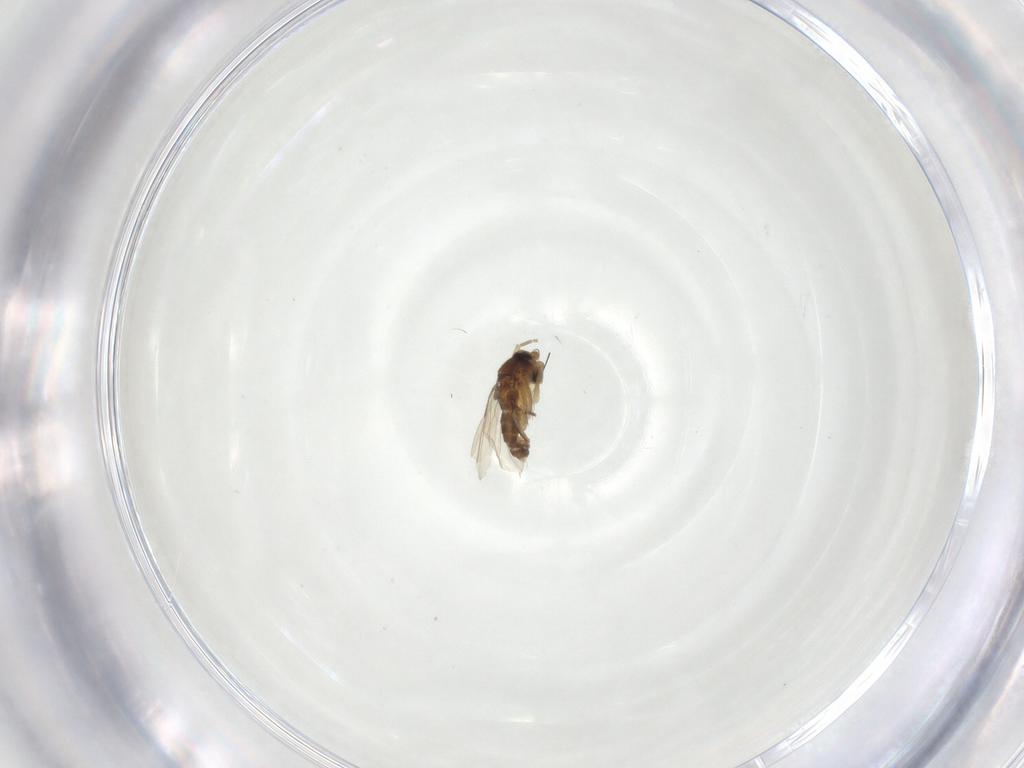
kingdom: Animalia
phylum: Arthropoda
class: Insecta
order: Diptera
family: Phoridae
